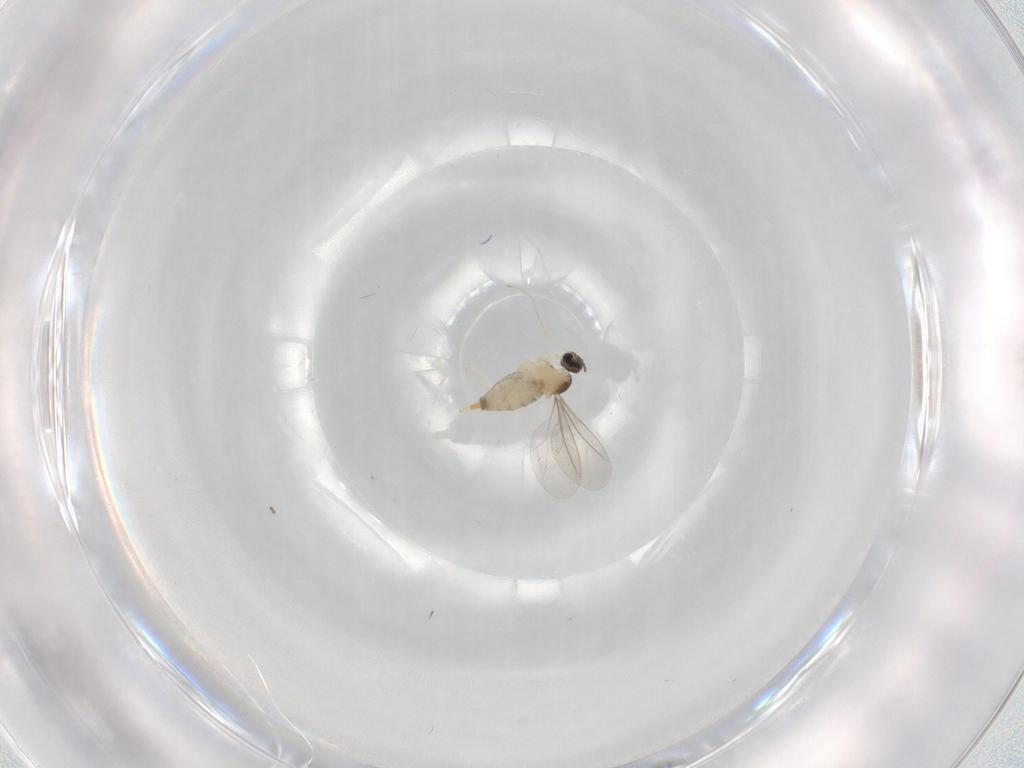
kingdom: Animalia
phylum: Arthropoda
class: Insecta
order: Diptera
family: Cecidomyiidae
